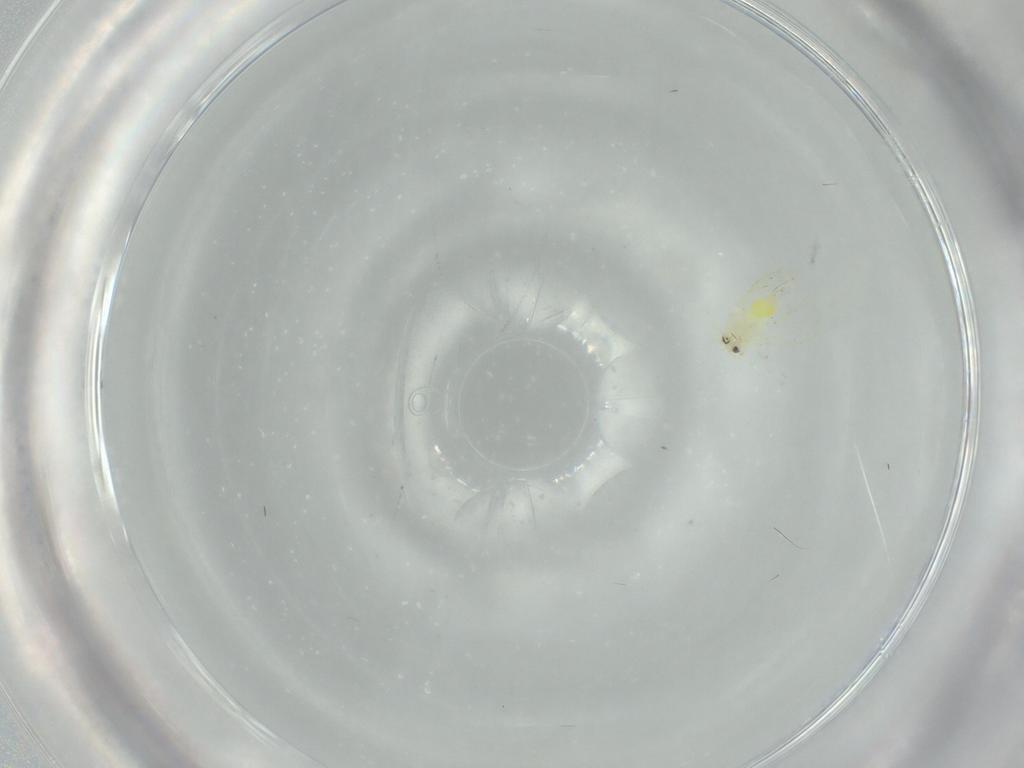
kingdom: Animalia
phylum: Arthropoda
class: Insecta
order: Hemiptera
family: Aleyrodidae
